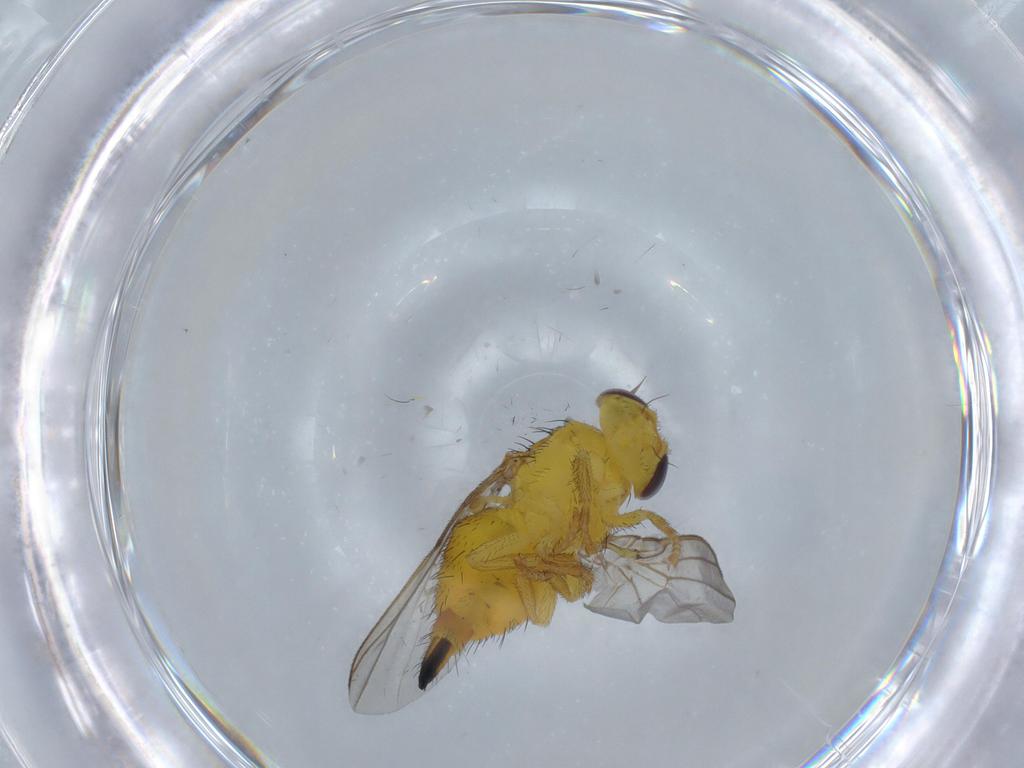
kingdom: Animalia
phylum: Arthropoda
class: Insecta
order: Diptera
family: Fergusoninidae
